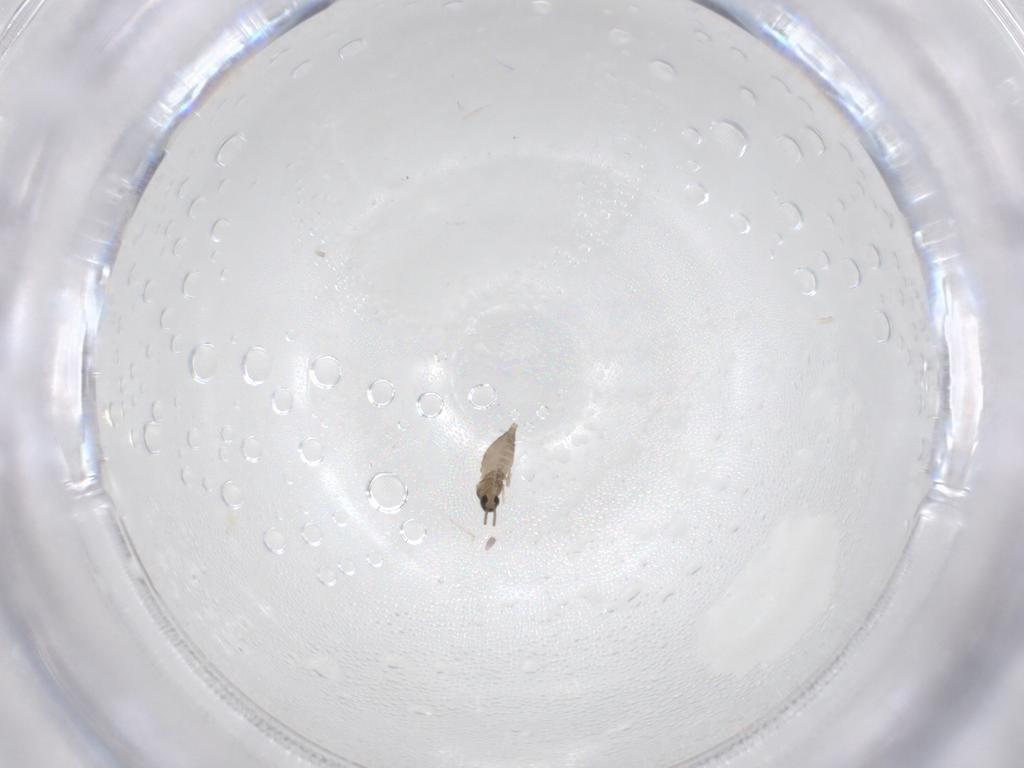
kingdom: Animalia
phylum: Arthropoda
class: Insecta
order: Diptera
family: Cecidomyiidae
